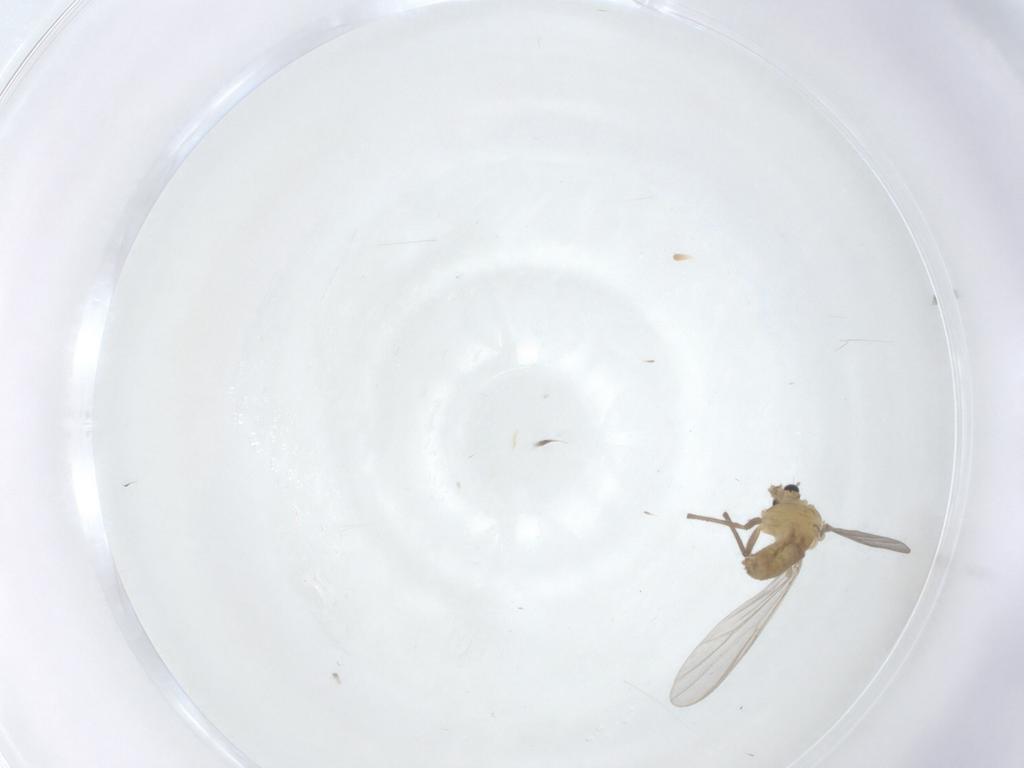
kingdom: Animalia
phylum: Arthropoda
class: Insecta
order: Diptera
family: Chironomidae
